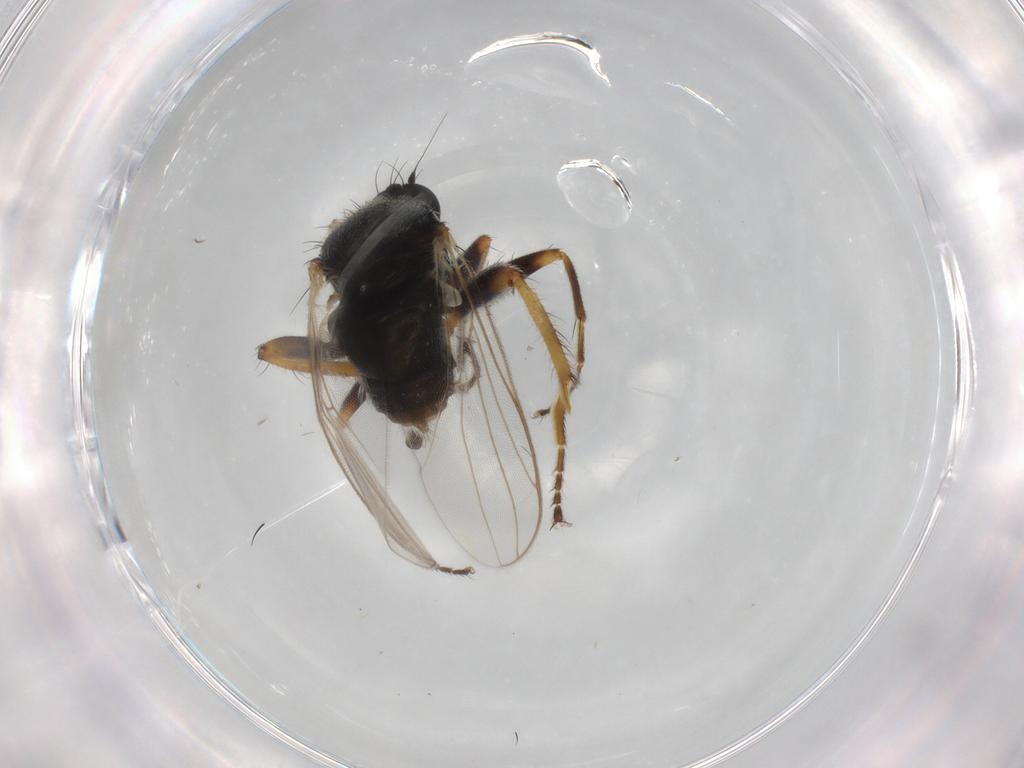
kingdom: Animalia
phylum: Arthropoda
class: Insecta
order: Diptera
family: Hybotidae
